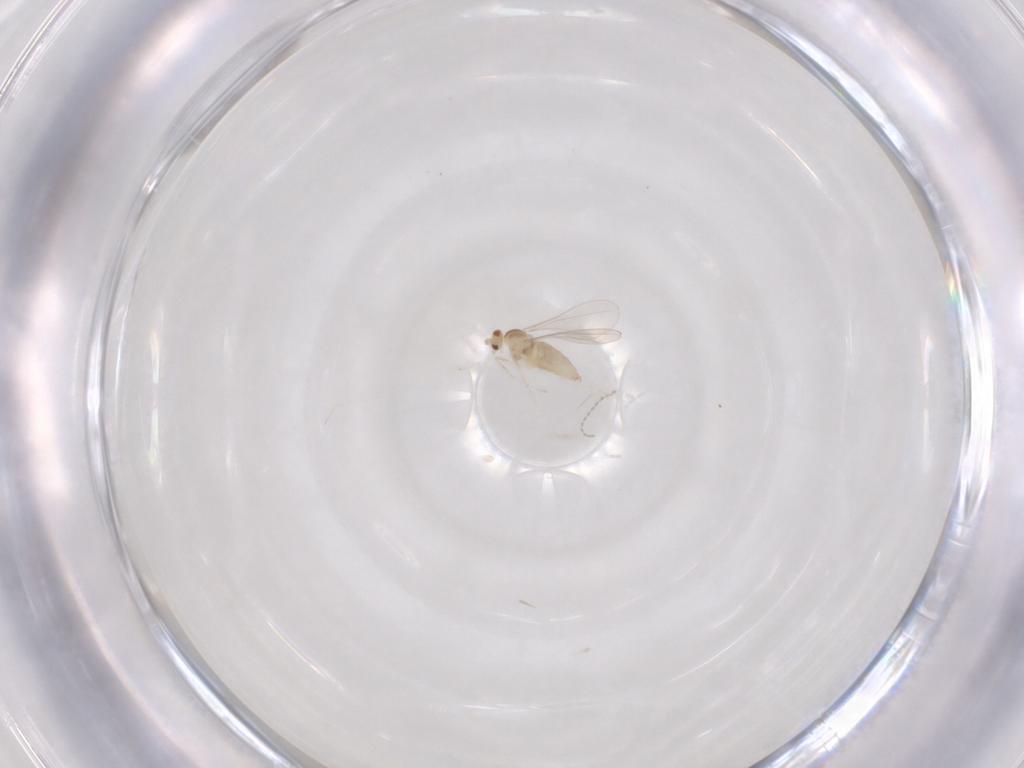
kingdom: Animalia
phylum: Arthropoda
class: Insecta
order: Diptera
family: Cecidomyiidae
